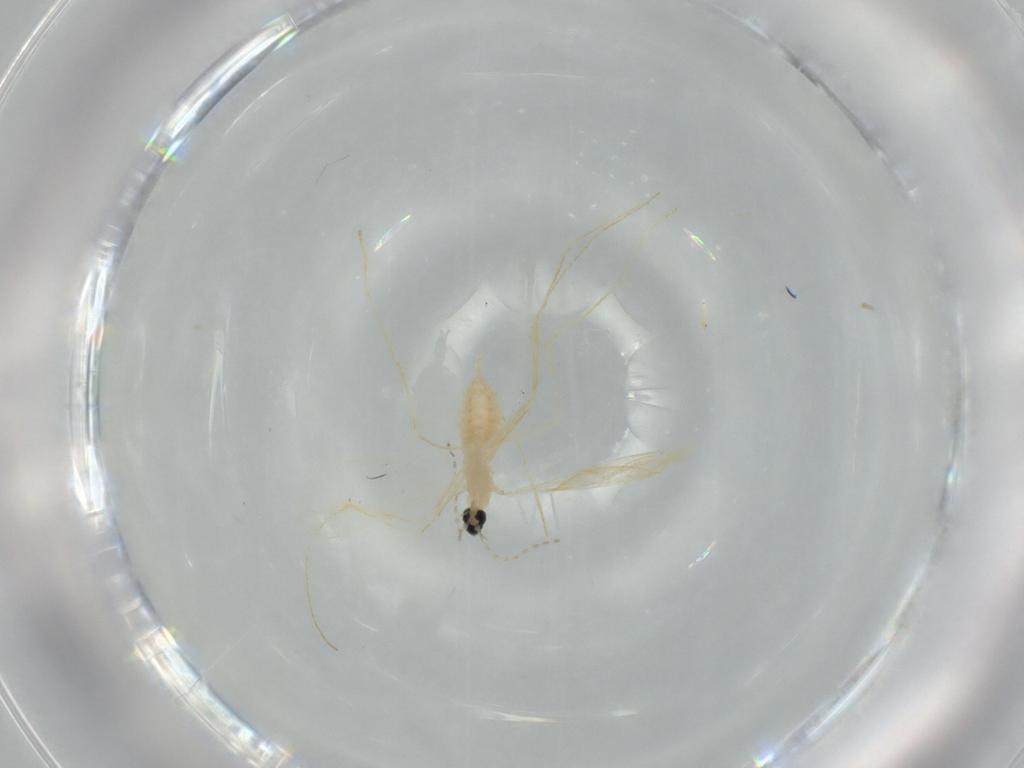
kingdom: Animalia
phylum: Arthropoda
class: Insecta
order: Diptera
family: Cecidomyiidae
